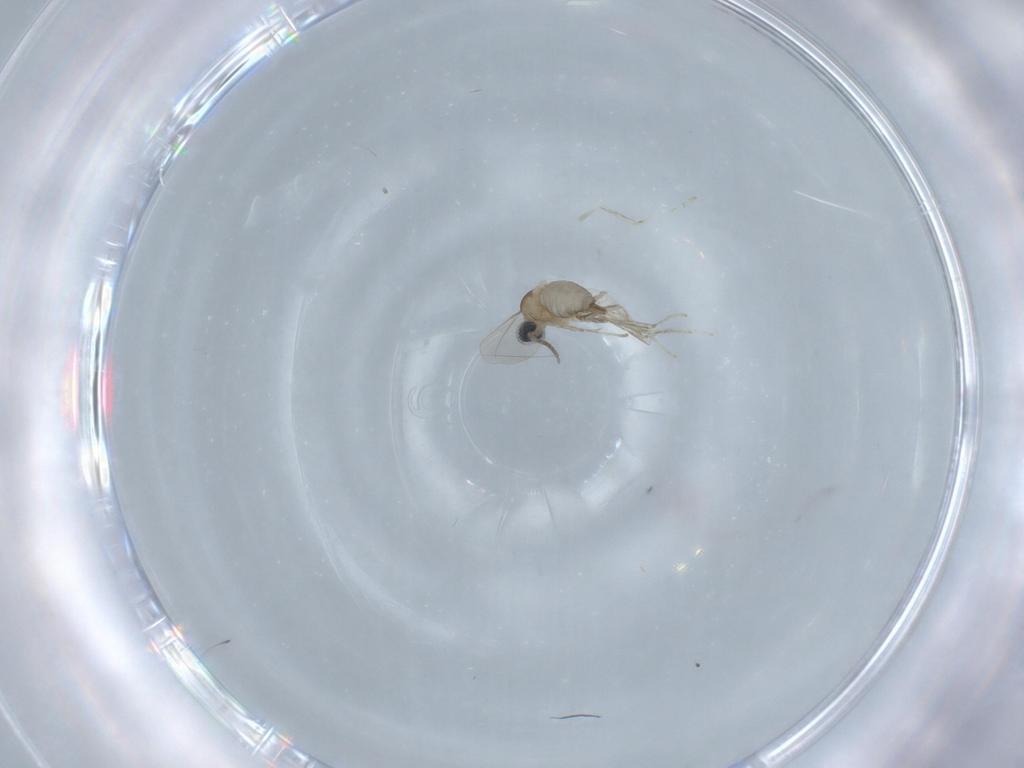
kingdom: Animalia
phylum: Arthropoda
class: Insecta
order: Diptera
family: Cecidomyiidae
